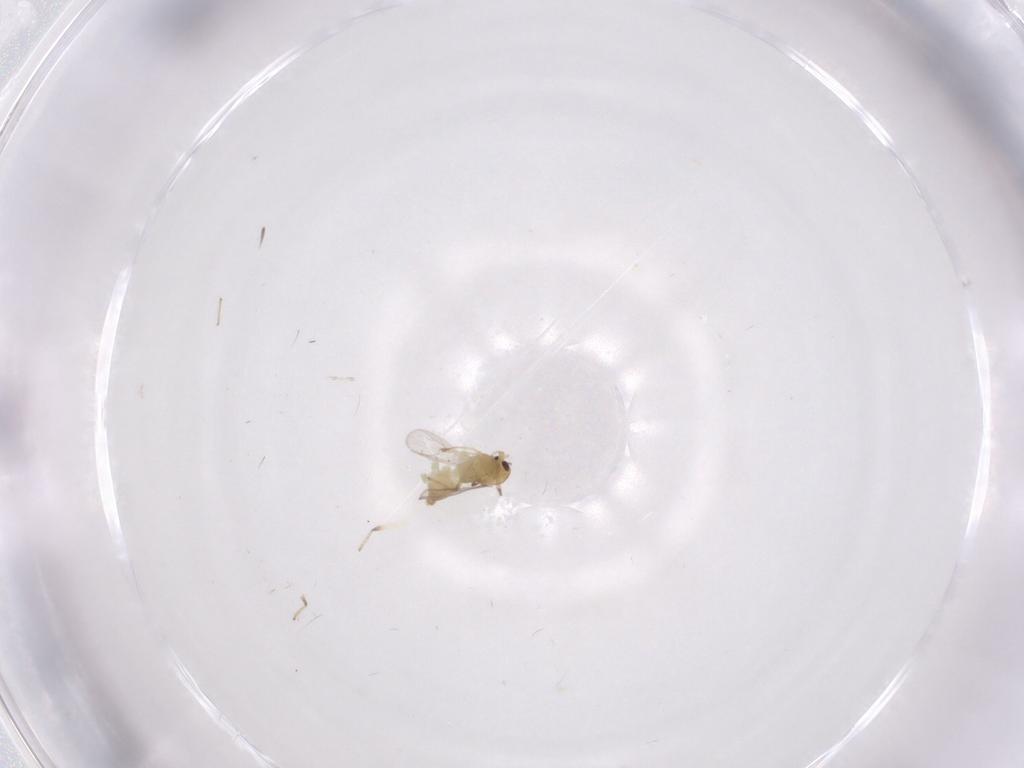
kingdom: Animalia
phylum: Arthropoda
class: Insecta
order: Diptera
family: Chironomidae
